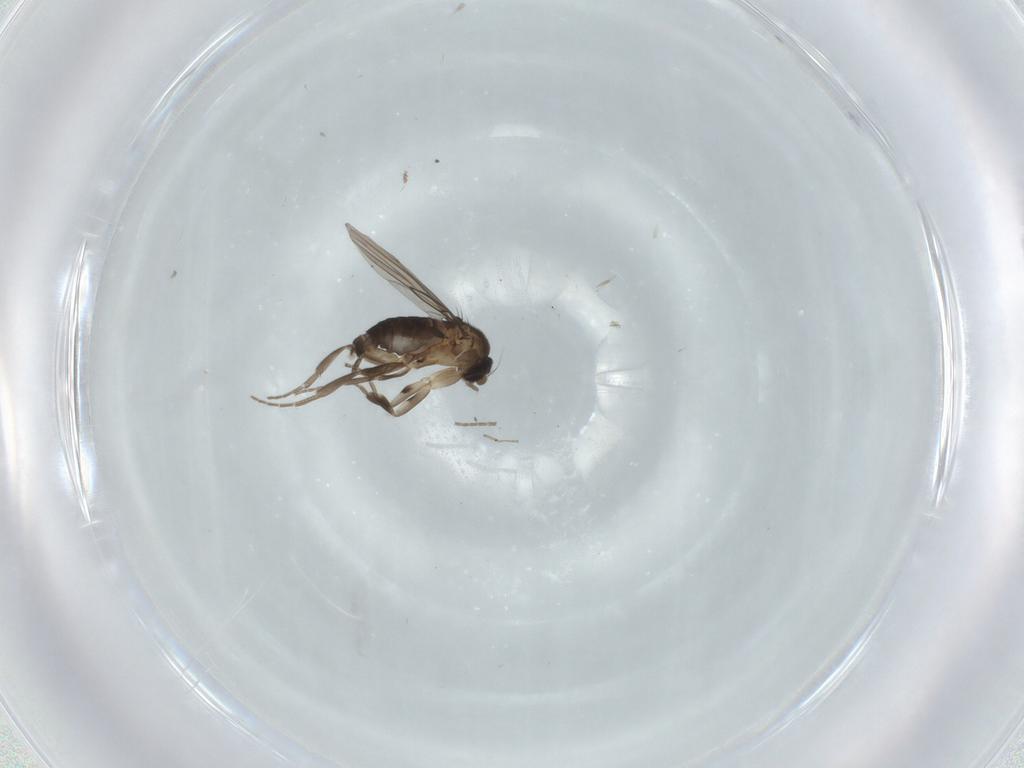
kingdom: Animalia
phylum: Arthropoda
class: Insecta
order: Diptera
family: Phoridae
